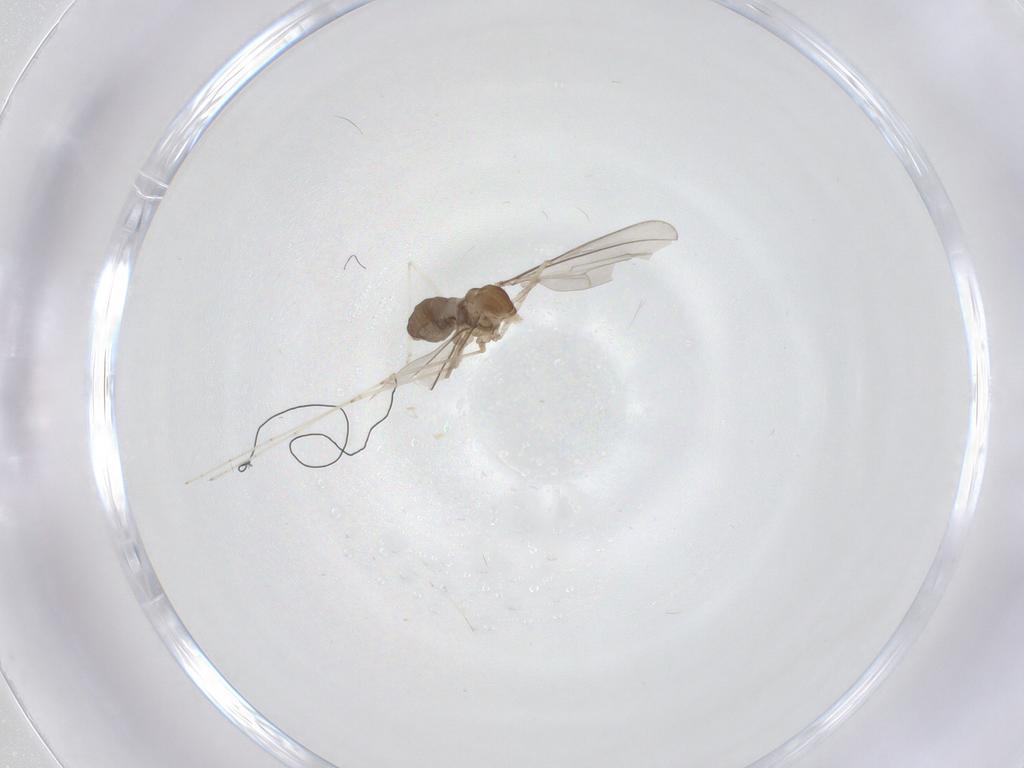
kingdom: Animalia
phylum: Arthropoda
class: Insecta
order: Diptera
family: Cecidomyiidae
